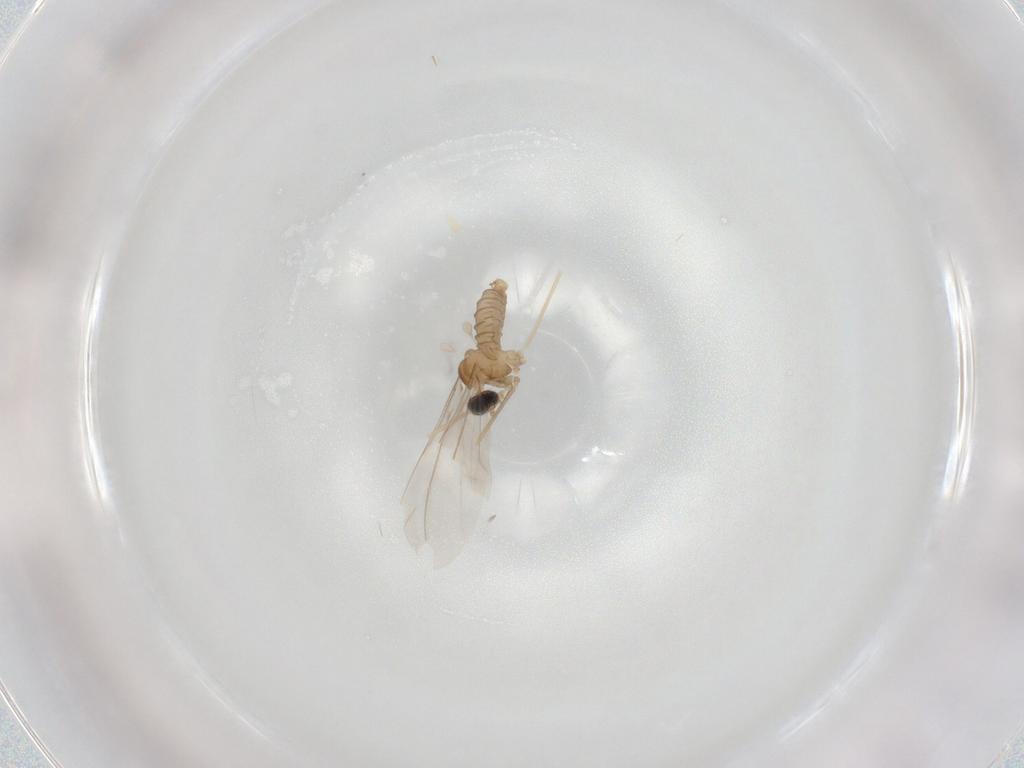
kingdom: Animalia
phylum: Arthropoda
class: Insecta
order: Diptera
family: Cecidomyiidae
